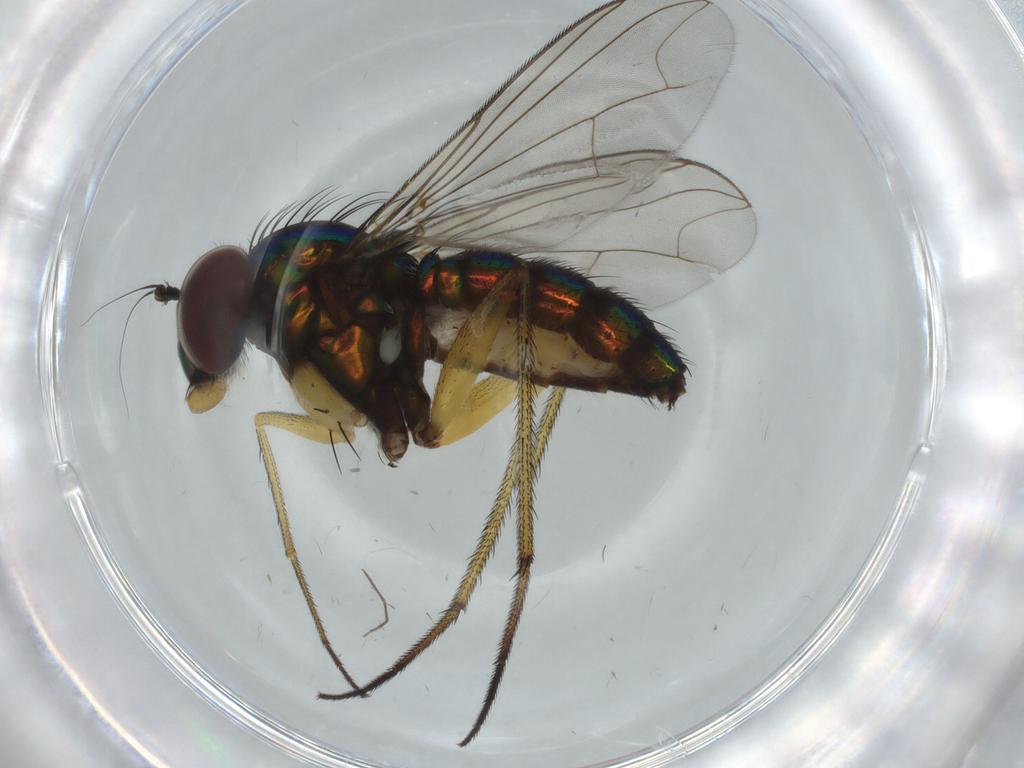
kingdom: Animalia
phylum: Arthropoda
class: Insecta
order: Diptera
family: Dolichopodidae
